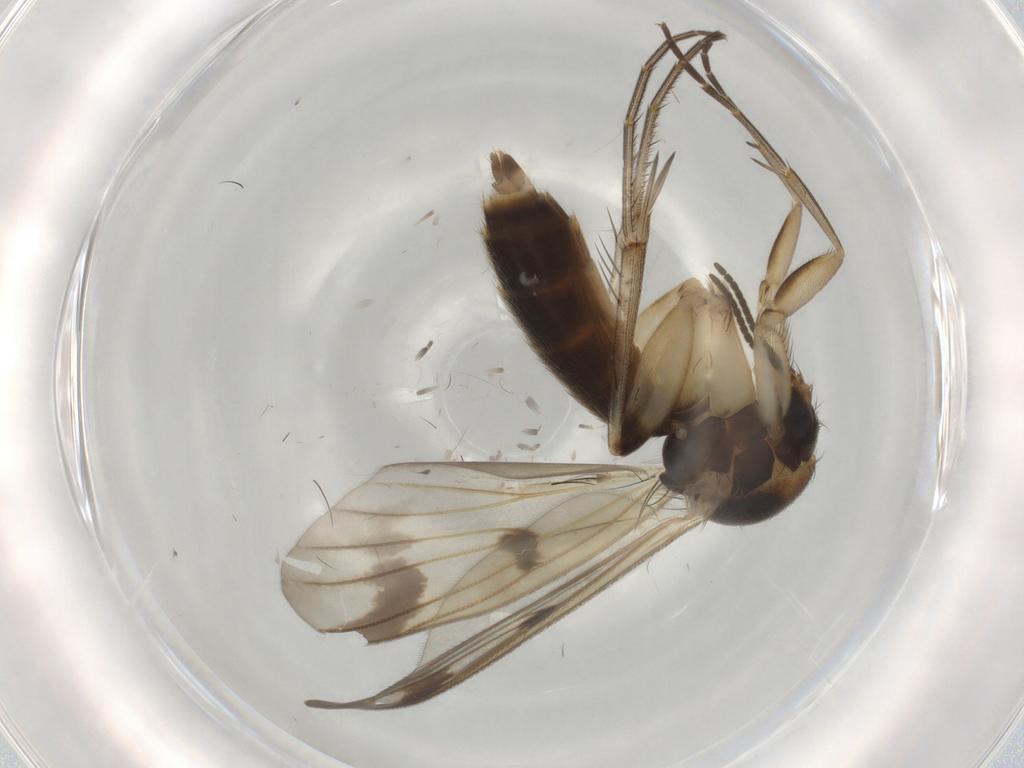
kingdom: Animalia
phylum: Arthropoda
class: Insecta
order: Diptera
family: Mycetophilidae
